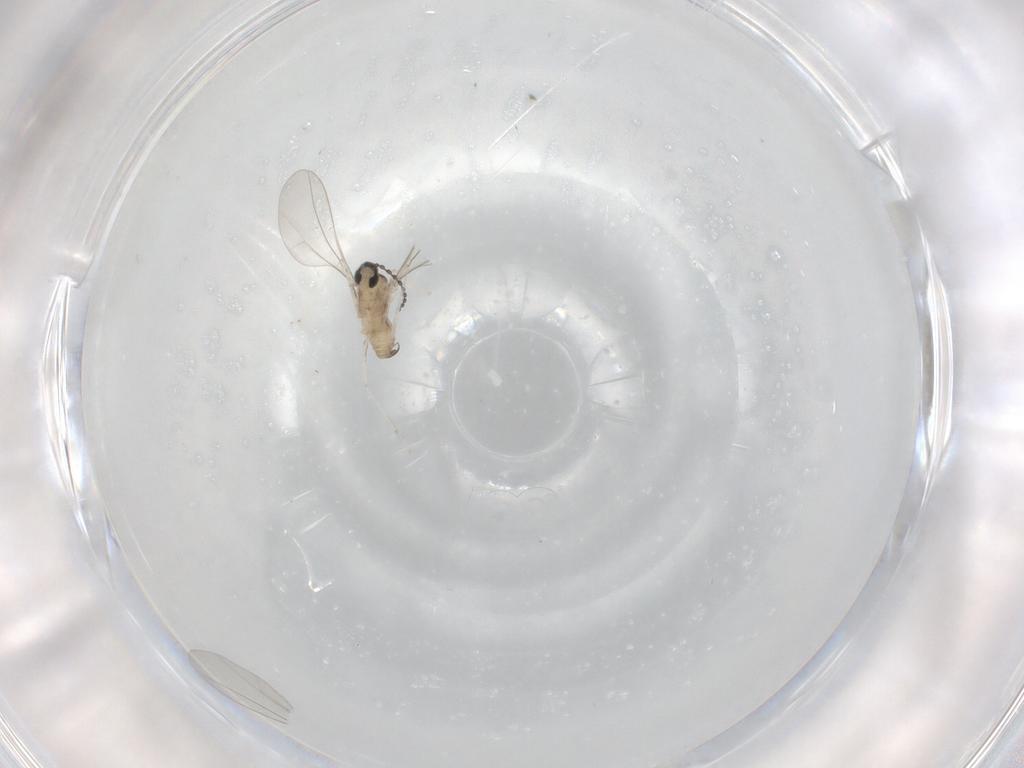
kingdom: Animalia
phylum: Arthropoda
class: Insecta
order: Diptera
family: Cecidomyiidae
